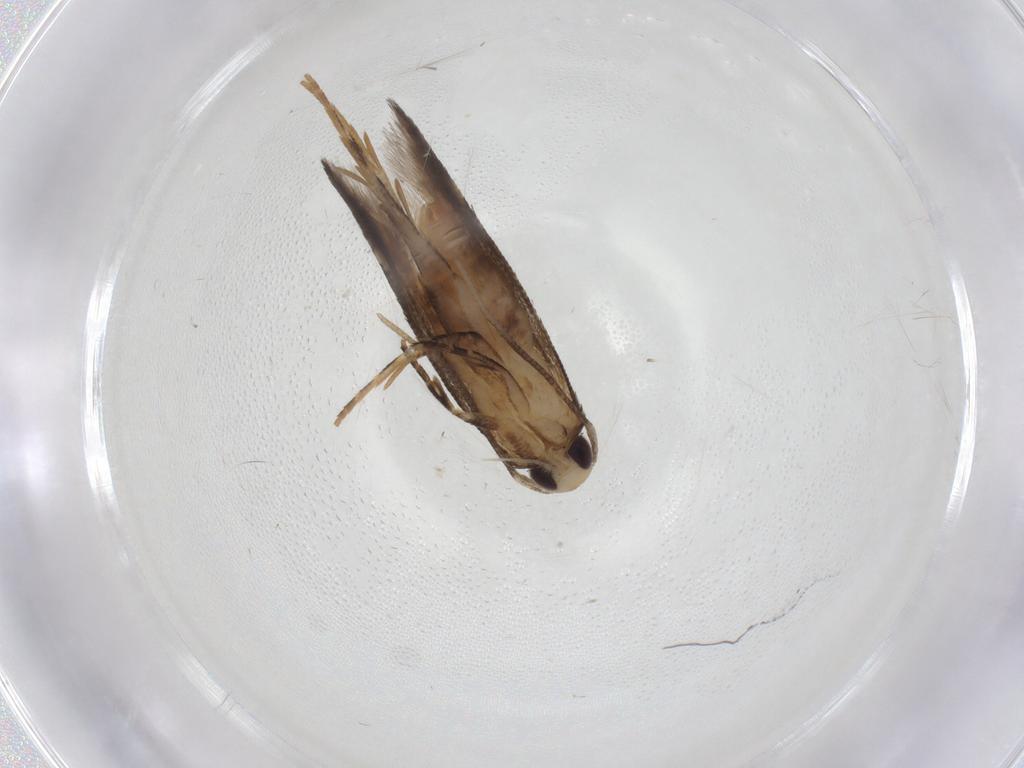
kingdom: Animalia
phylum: Arthropoda
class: Insecta
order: Lepidoptera
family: Cosmopterigidae
